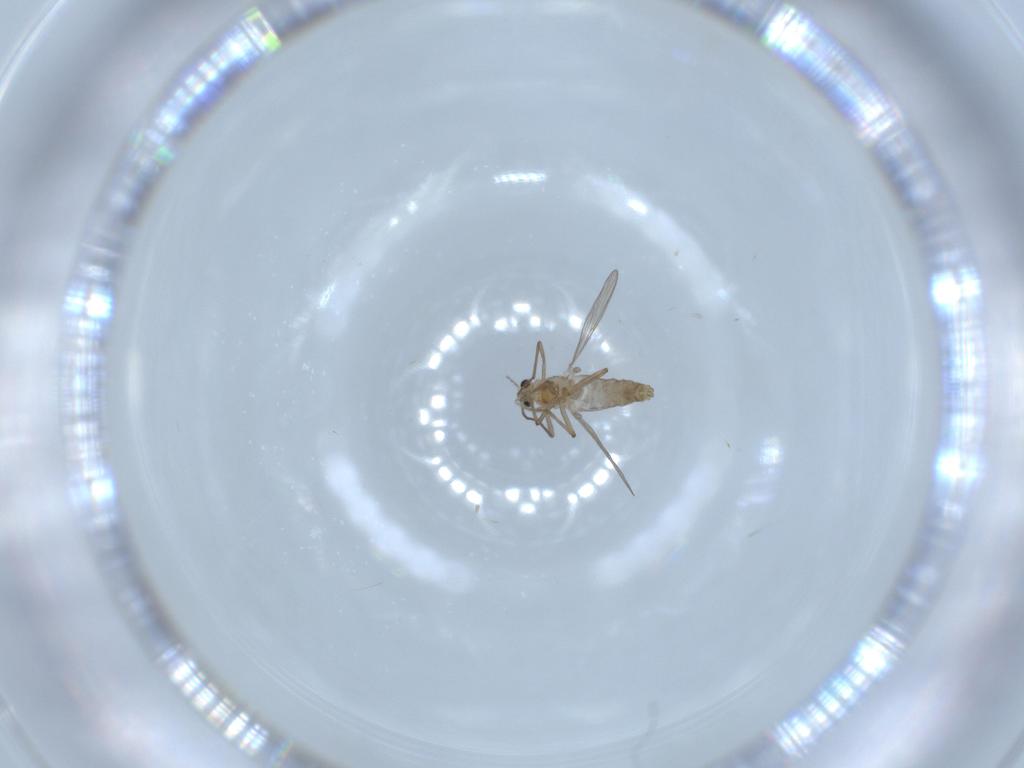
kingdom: Animalia
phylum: Arthropoda
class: Insecta
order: Diptera
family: Chironomidae
